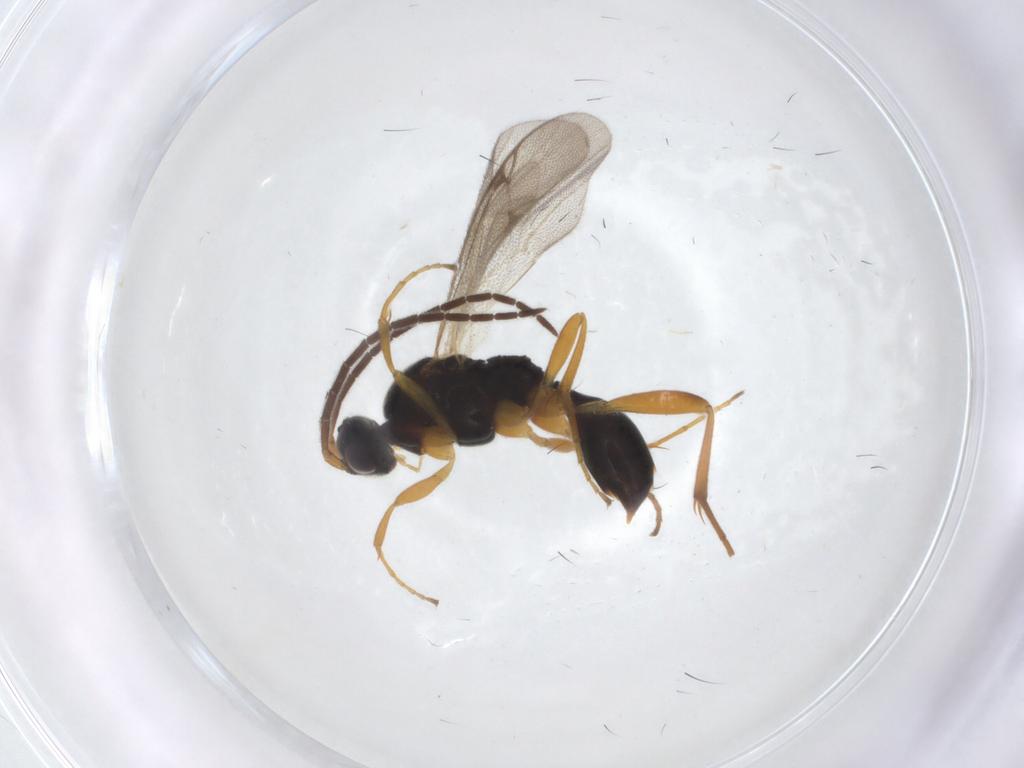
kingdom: Animalia
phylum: Arthropoda
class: Insecta
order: Hymenoptera
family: Proctotrupidae
